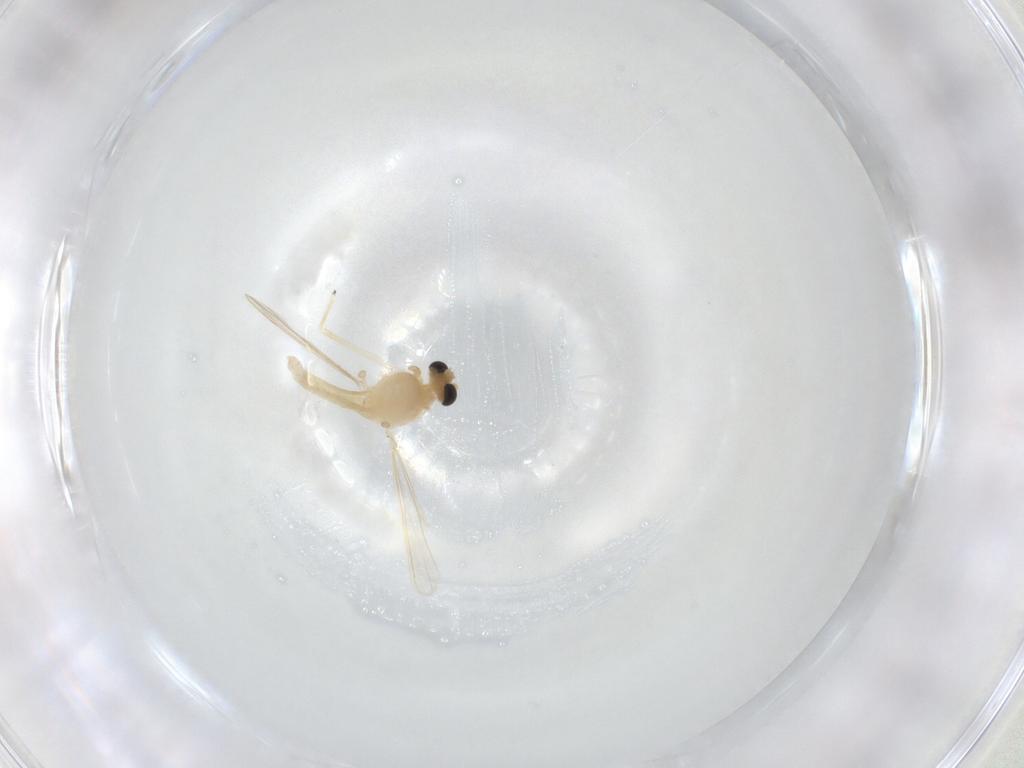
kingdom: Animalia
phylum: Arthropoda
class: Insecta
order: Diptera
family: Chironomidae
